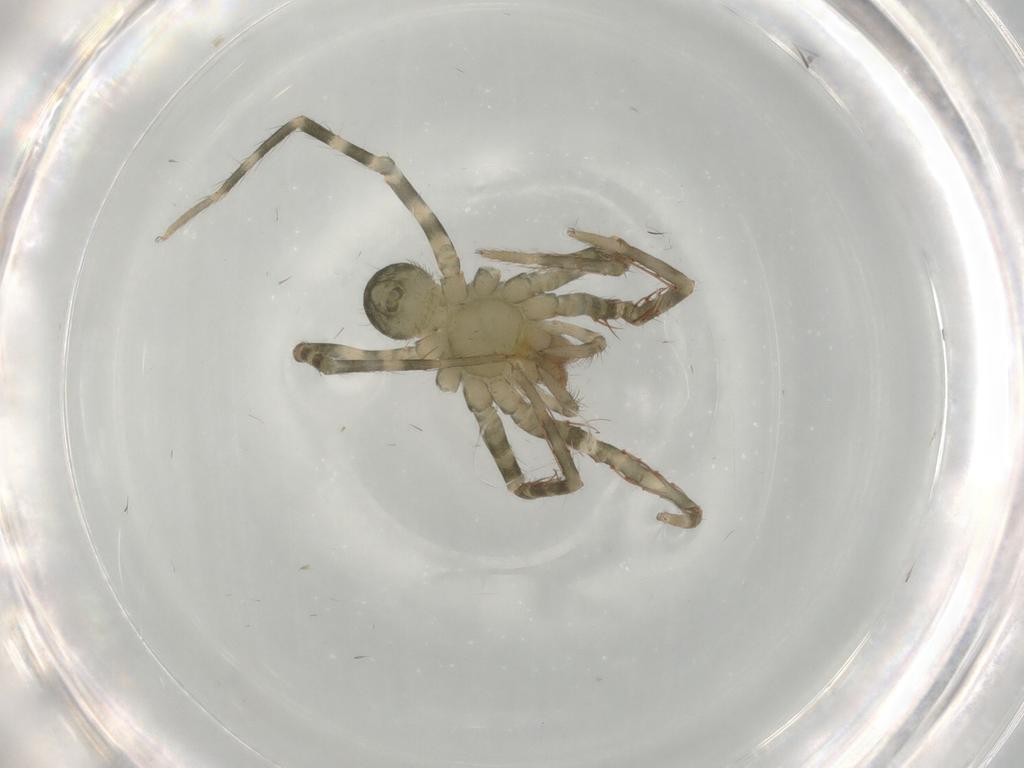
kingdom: Animalia
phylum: Arthropoda
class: Arachnida
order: Araneae
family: Ctenidae
